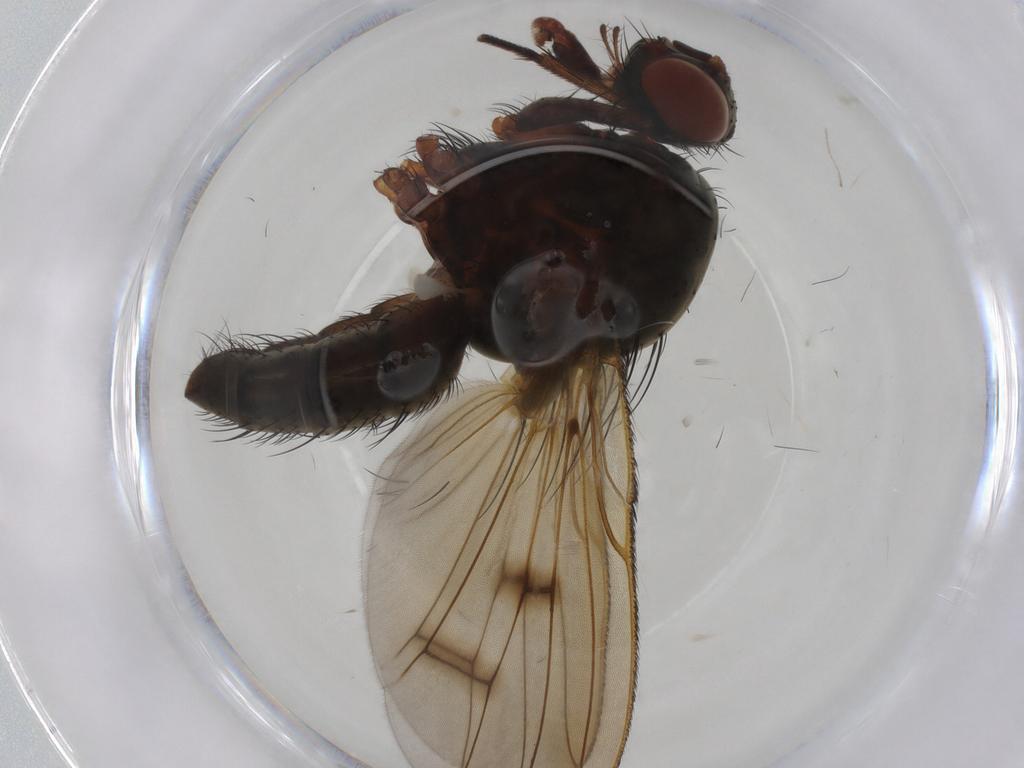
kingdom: Animalia
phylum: Arthropoda
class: Insecta
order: Diptera
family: Anthomyiidae
